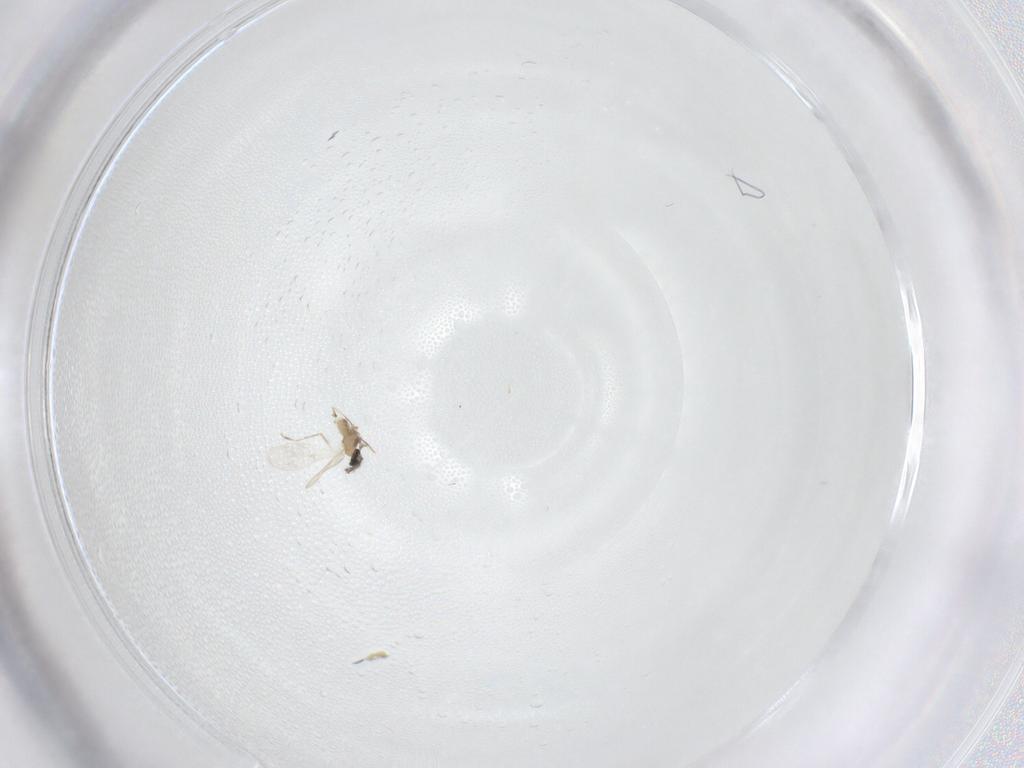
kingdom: Animalia
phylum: Arthropoda
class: Insecta
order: Diptera
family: Cecidomyiidae
